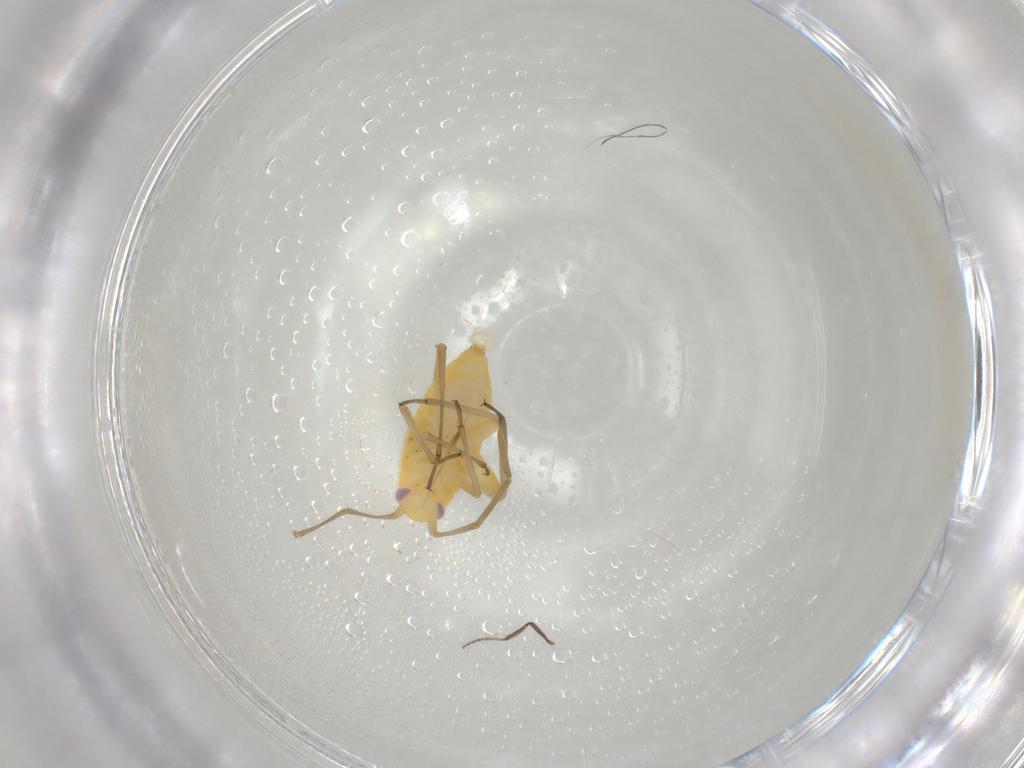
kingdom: Animalia
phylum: Arthropoda
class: Insecta
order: Hemiptera
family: Miridae
